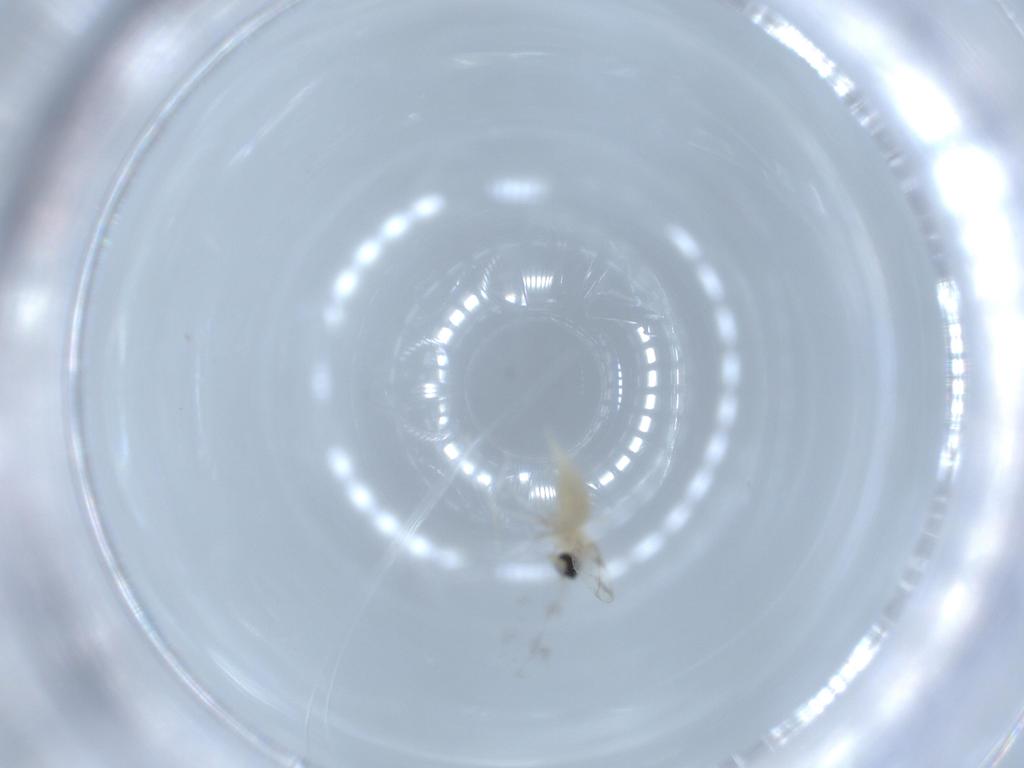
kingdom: Animalia
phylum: Arthropoda
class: Insecta
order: Diptera
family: Cecidomyiidae
